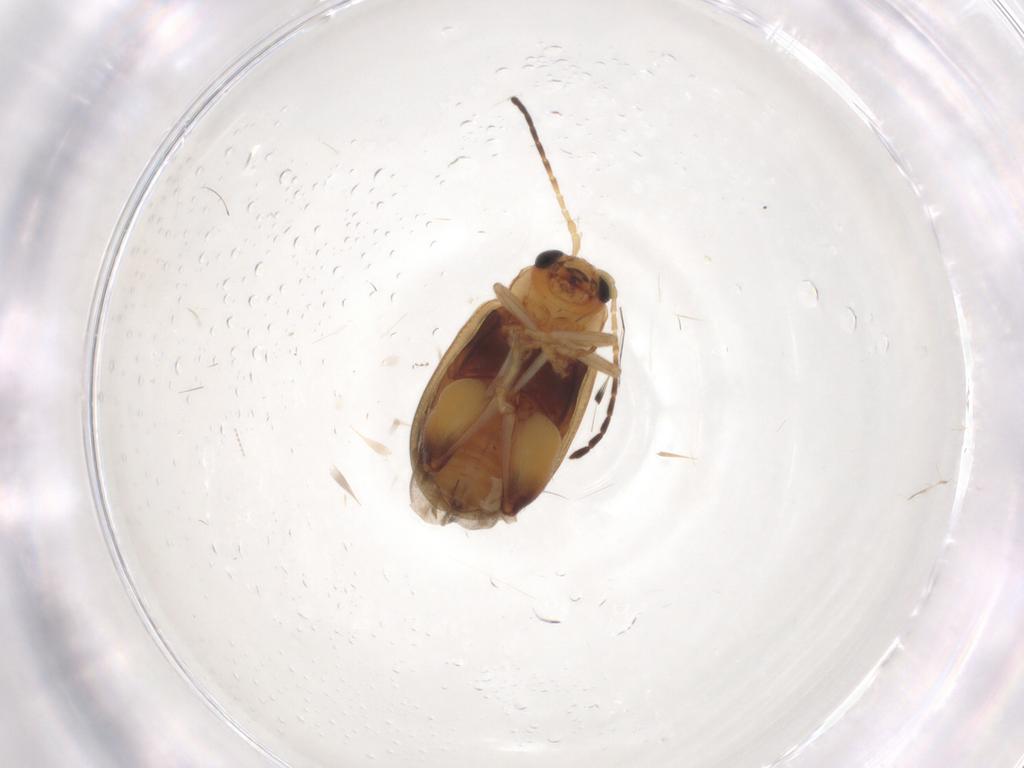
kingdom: Animalia
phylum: Arthropoda
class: Insecta
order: Coleoptera
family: Chrysomelidae
